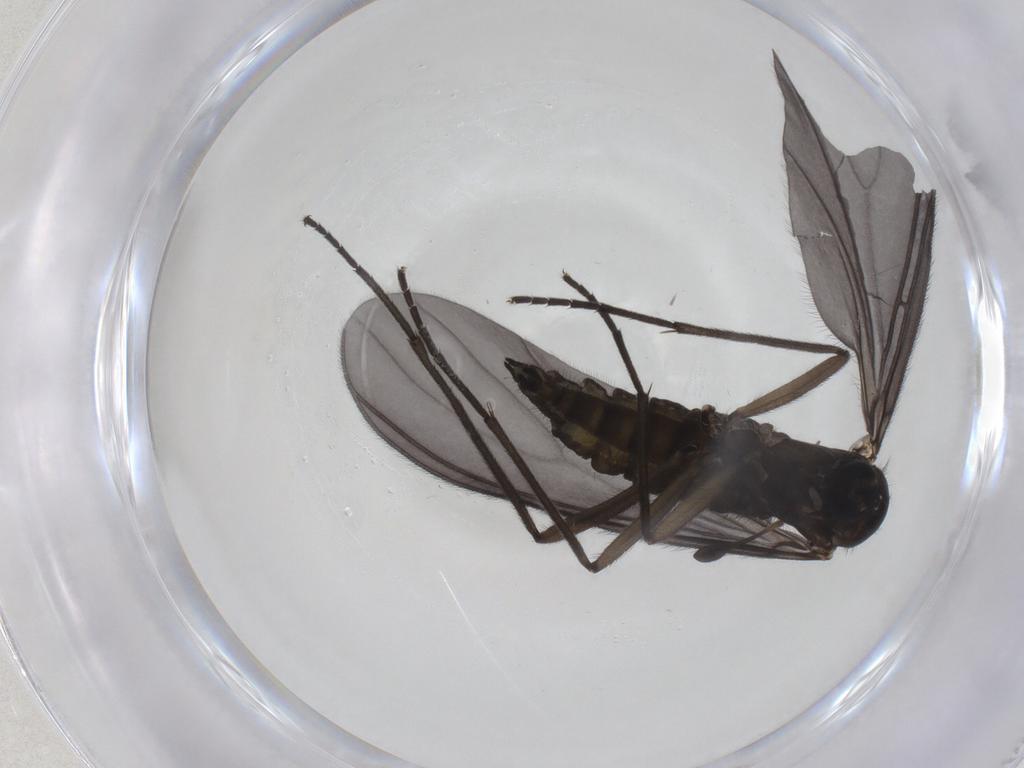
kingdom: Animalia
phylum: Arthropoda
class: Insecta
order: Diptera
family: Sciaridae
